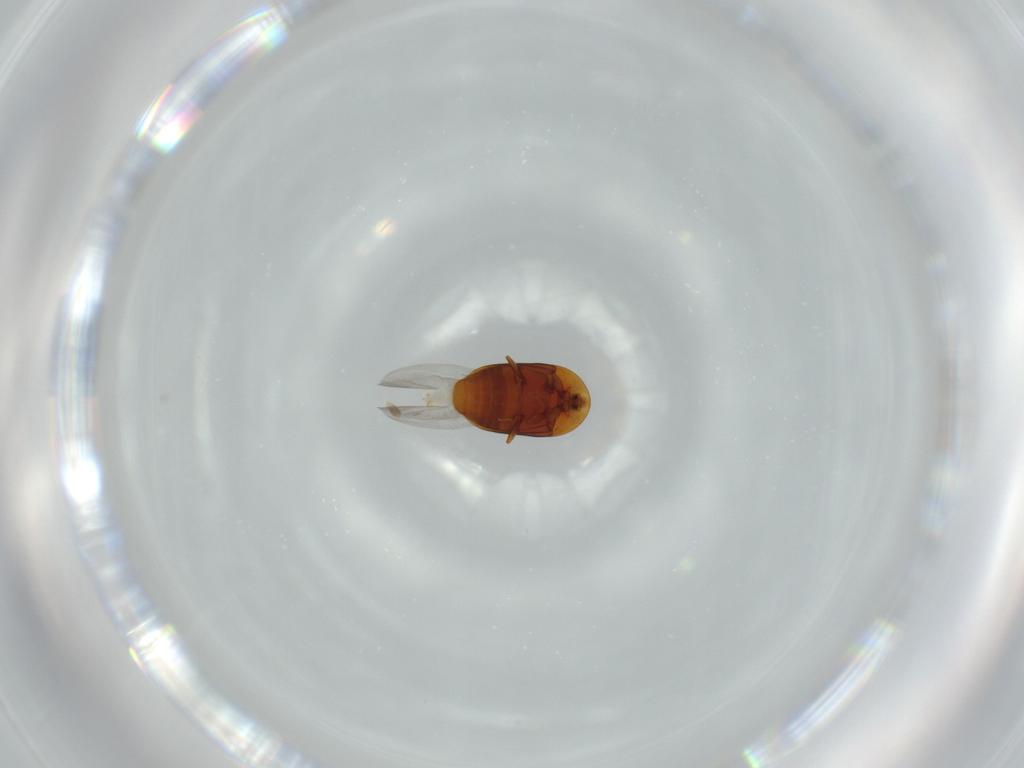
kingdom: Animalia
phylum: Arthropoda
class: Insecta
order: Coleoptera
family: Corylophidae
